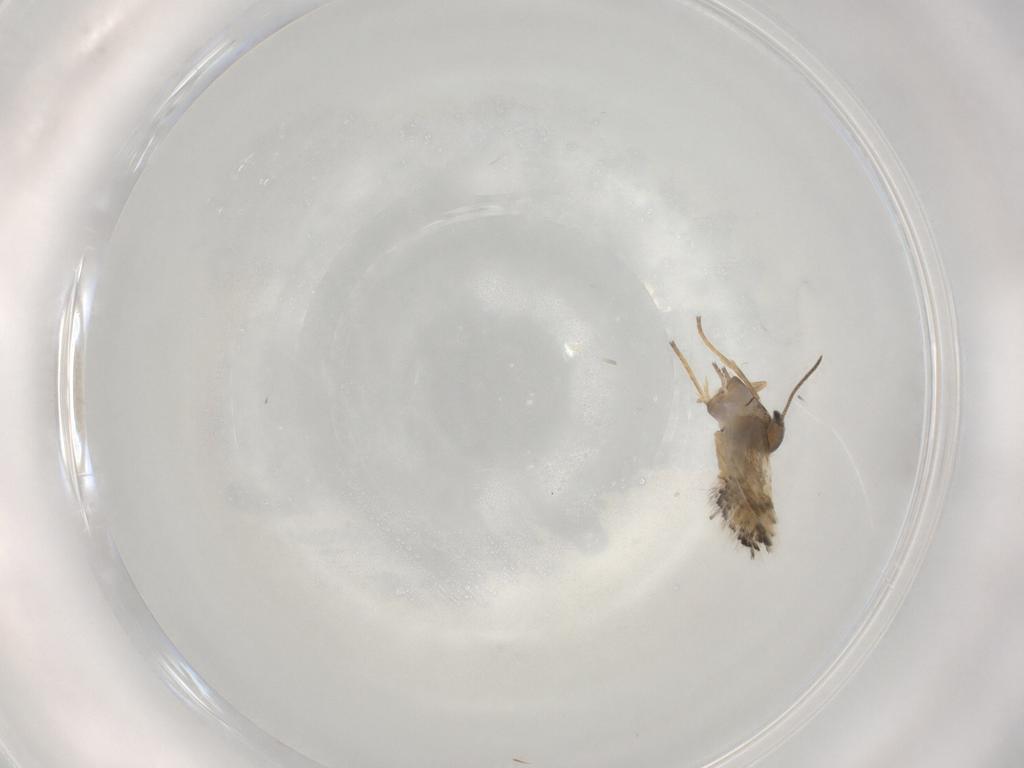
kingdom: Animalia
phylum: Arthropoda
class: Insecta
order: Lepidoptera
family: Heliozelidae
